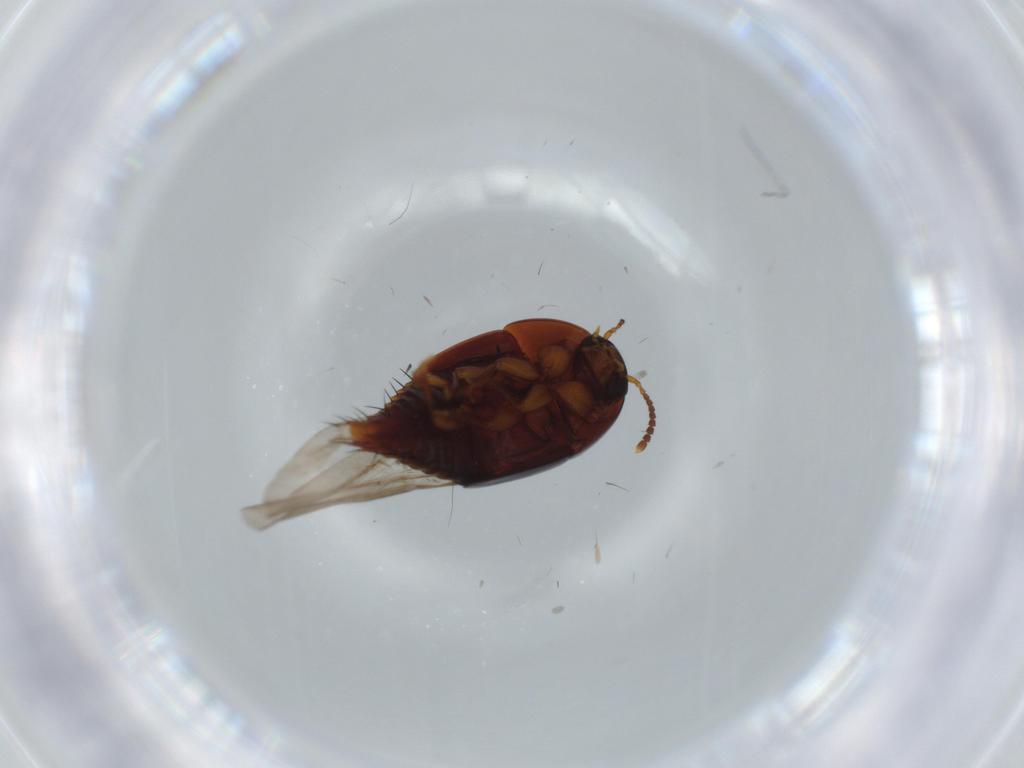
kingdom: Animalia
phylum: Arthropoda
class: Insecta
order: Coleoptera
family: Staphylinidae
